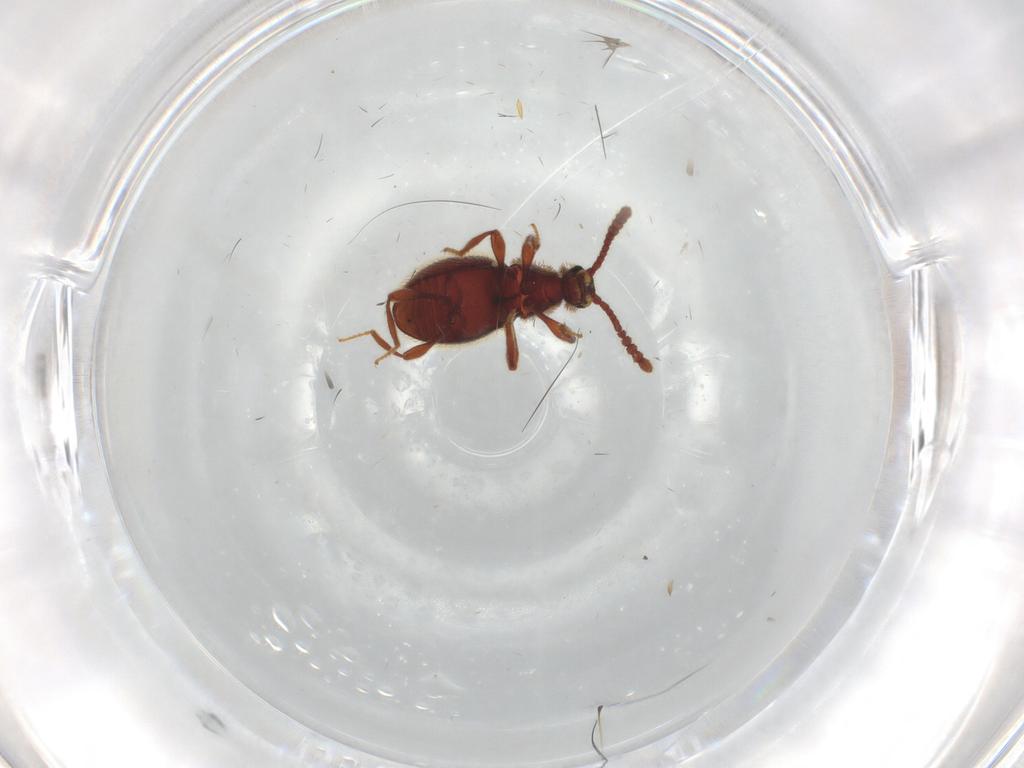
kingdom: Animalia
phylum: Arthropoda
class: Insecta
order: Coleoptera
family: Staphylinidae
